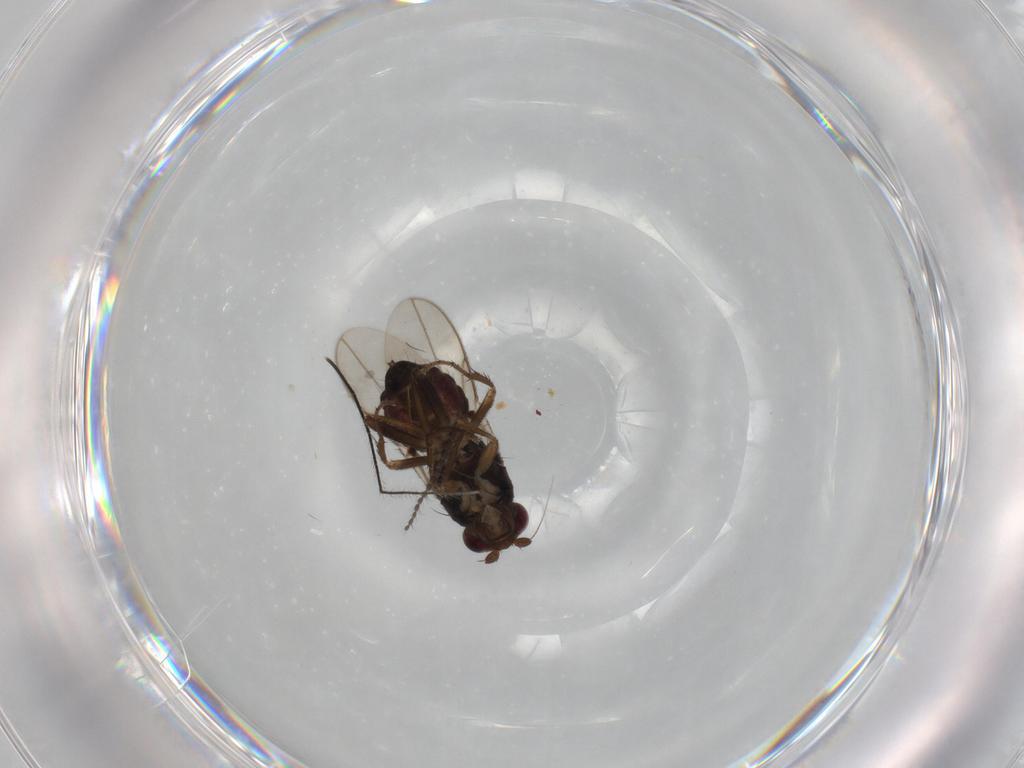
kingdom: Animalia
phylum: Arthropoda
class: Insecta
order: Diptera
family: Sphaeroceridae
